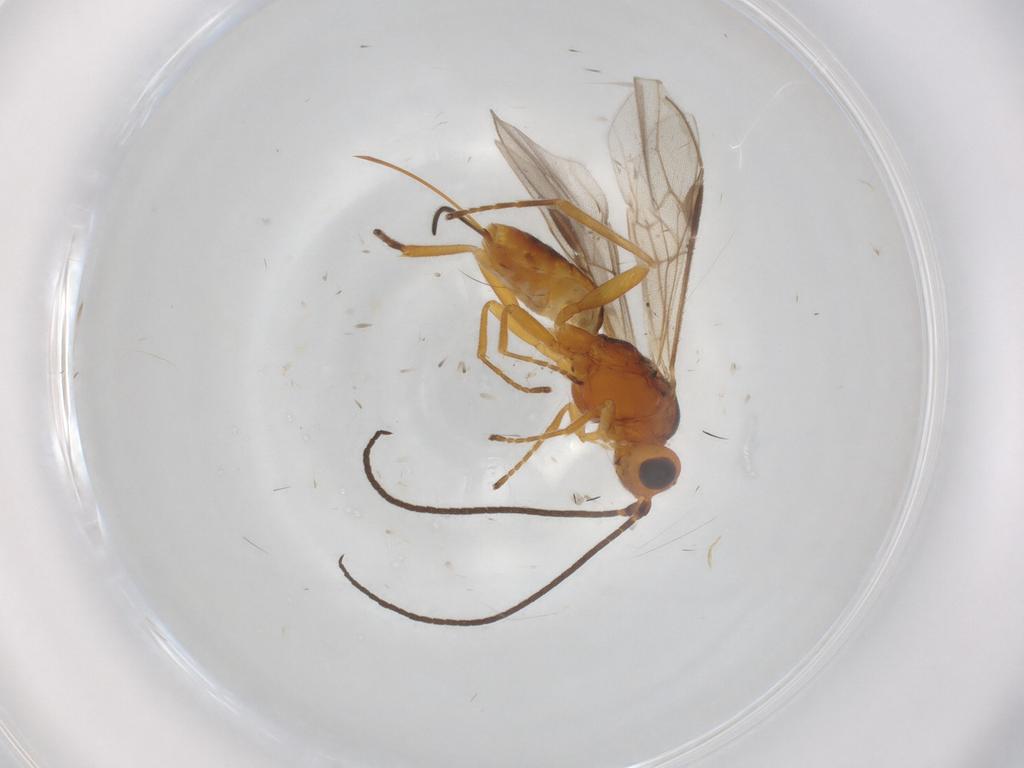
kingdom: Animalia
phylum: Arthropoda
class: Insecta
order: Hymenoptera
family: Braconidae
